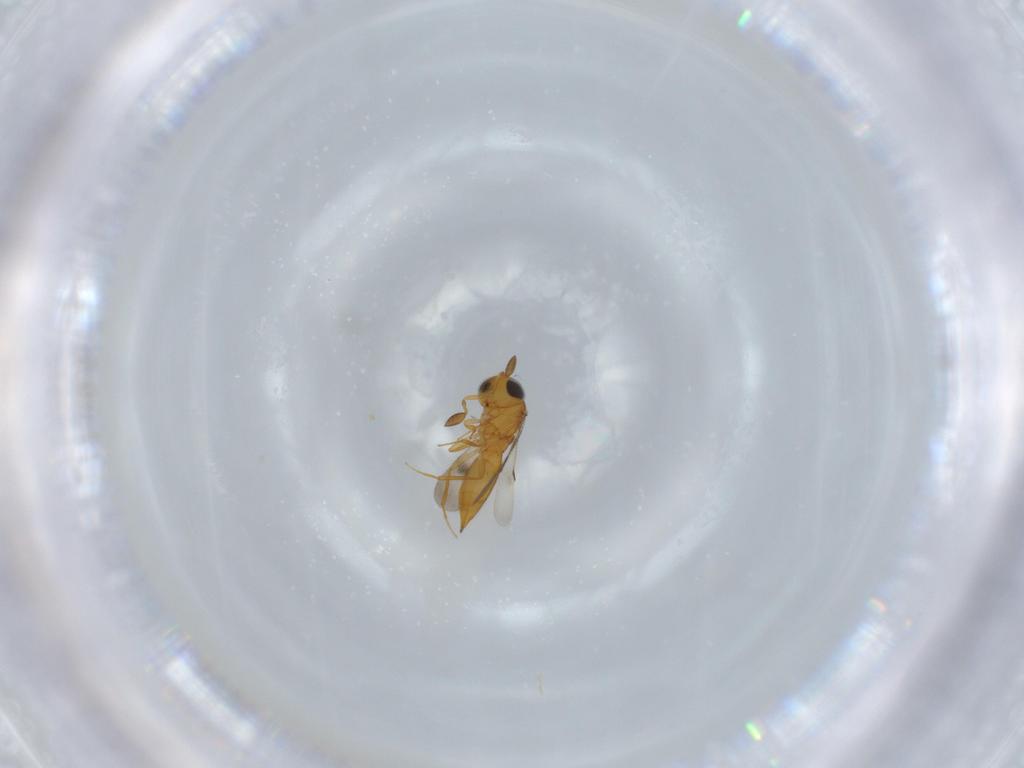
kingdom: Animalia
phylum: Arthropoda
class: Insecta
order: Hymenoptera
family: Scelionidae
